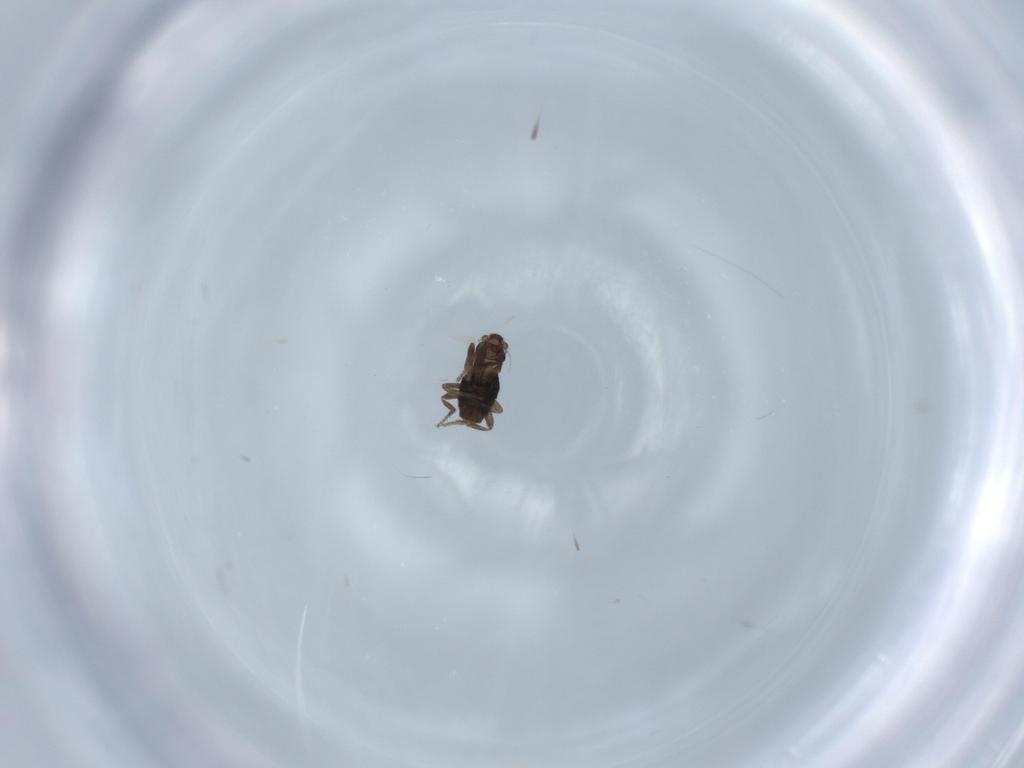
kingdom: Animalia
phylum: Arthropoda
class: Insecta
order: Diptera
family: Phoridae
